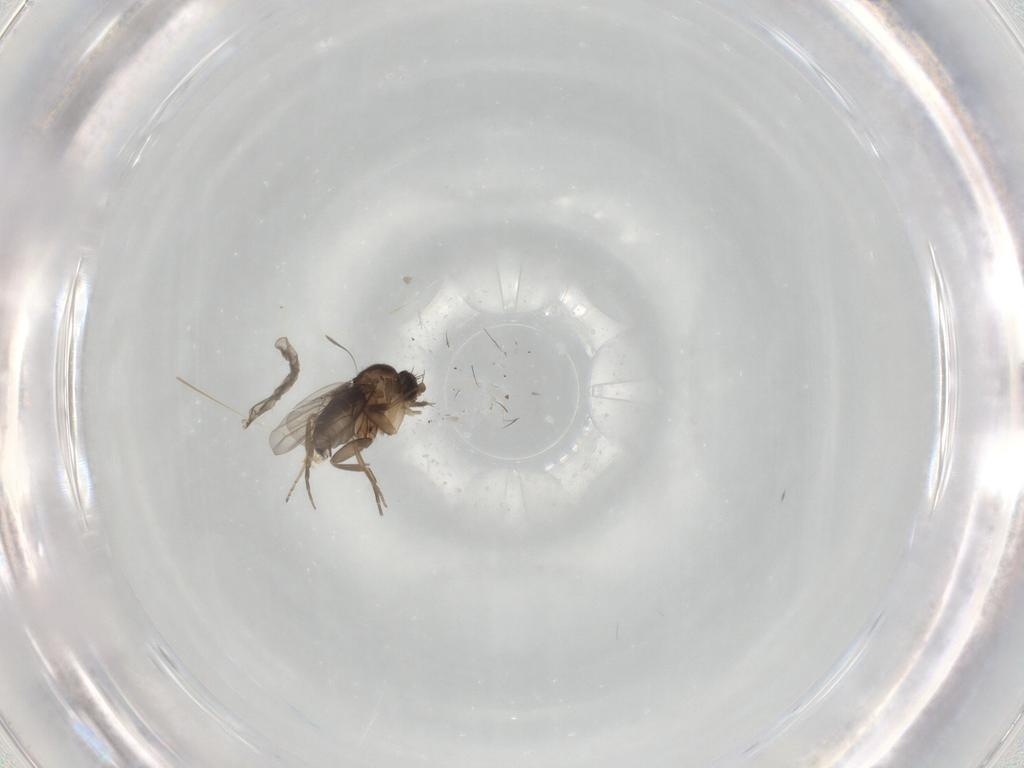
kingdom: Animalia
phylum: Arthropoda
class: Insecta
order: Diptera
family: Phoridae
